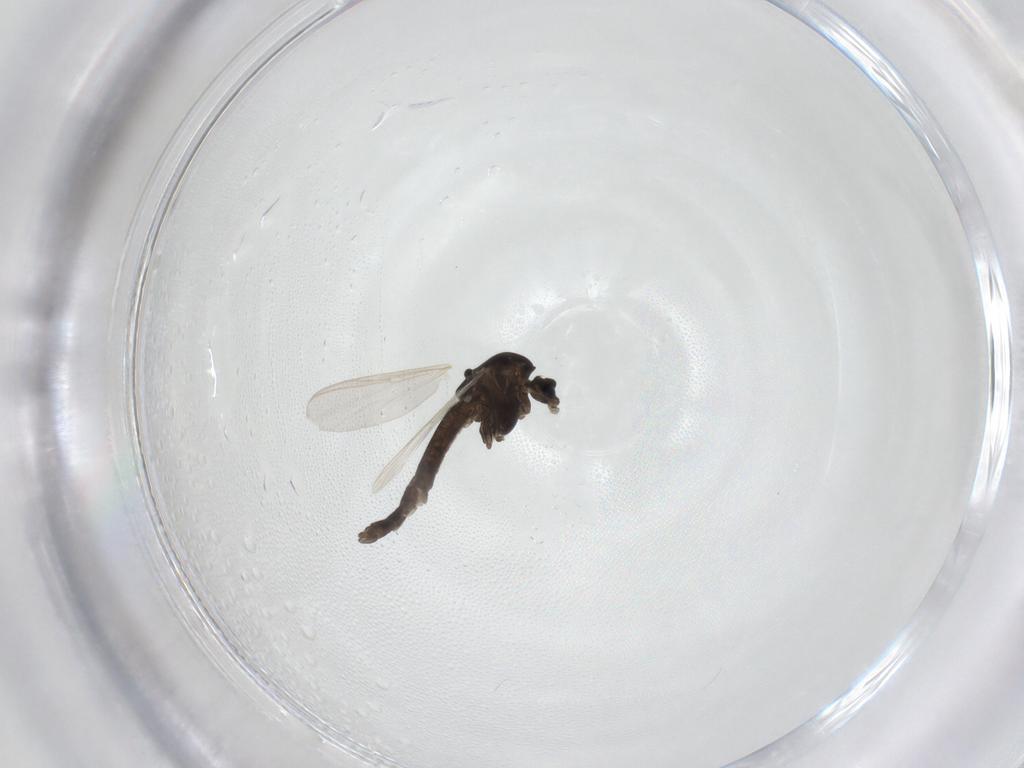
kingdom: Animalia
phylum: Arthropoda
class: Insecta
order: Diptera
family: Chironomidae
